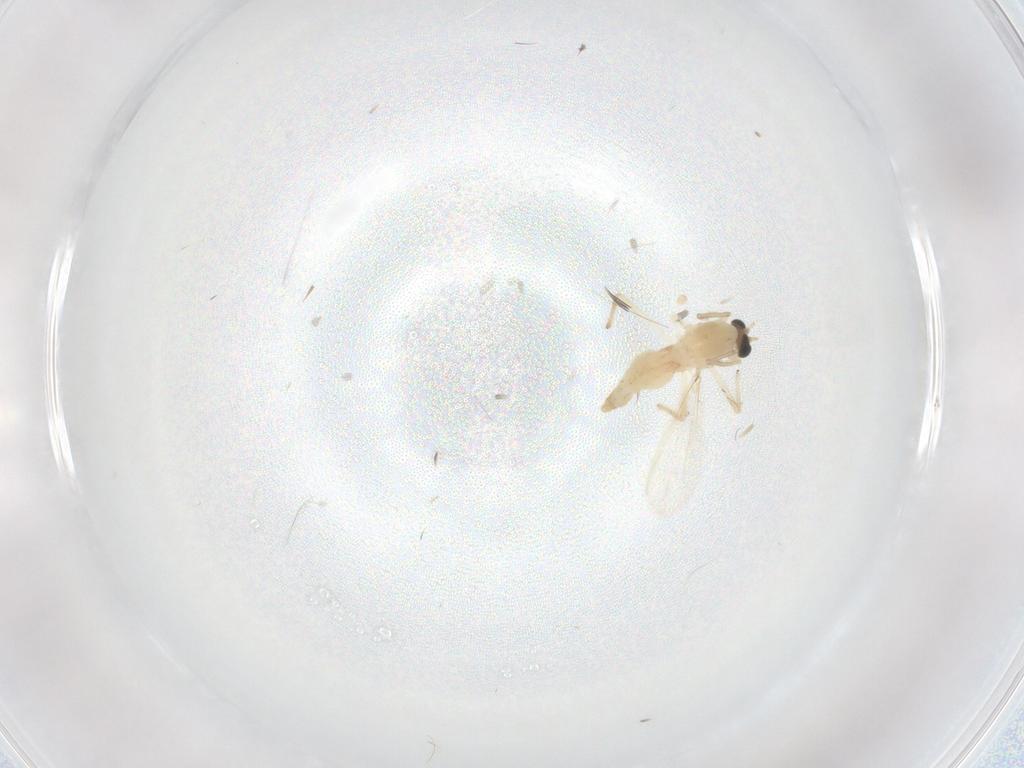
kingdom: Animalia
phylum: Arthropoda
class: Insecta
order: Diptera
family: Chironomidae
